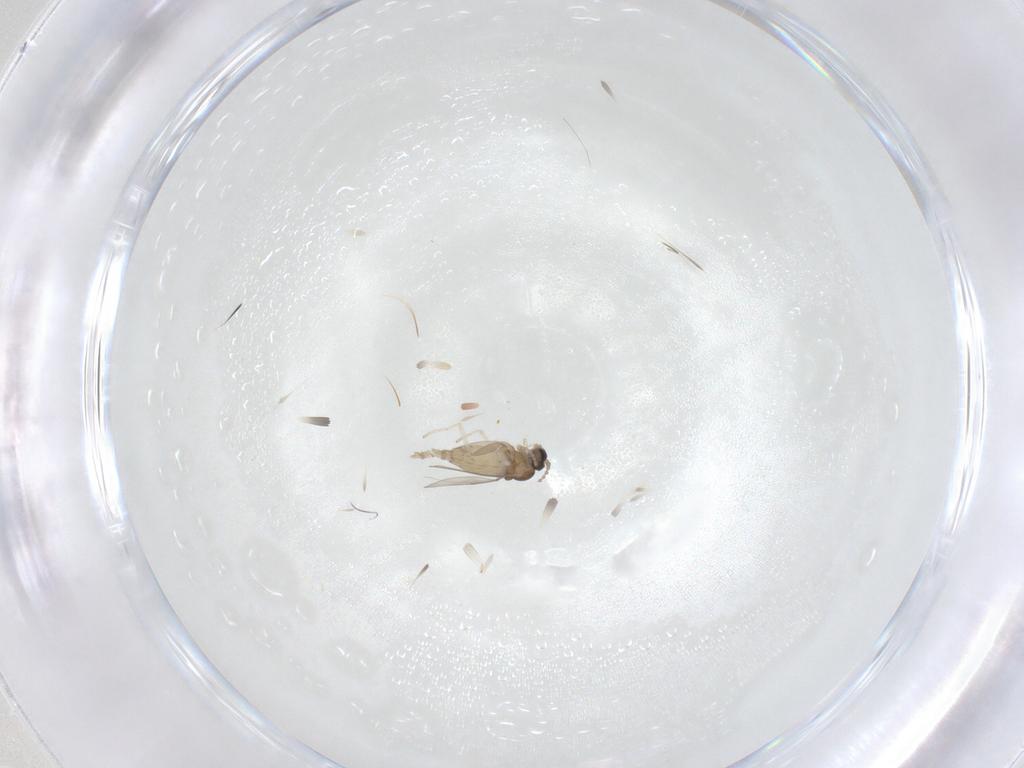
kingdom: Animalia
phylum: Arthropoda
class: Insecta
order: Diptera
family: Cecidomyiidae
